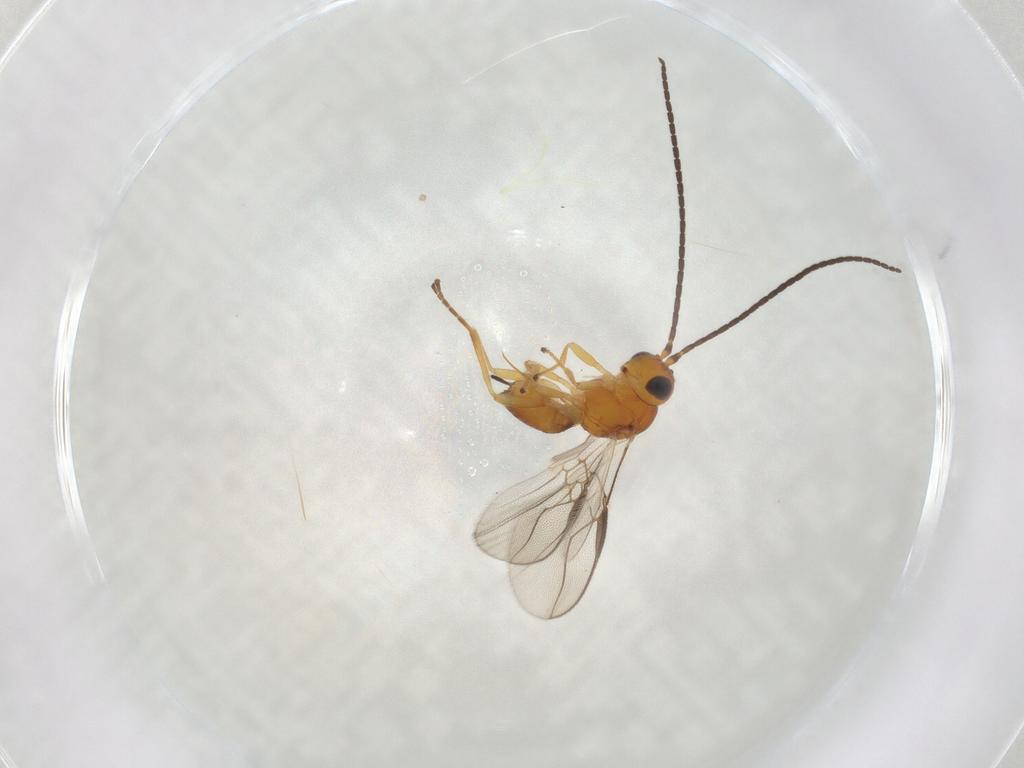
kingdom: Animalia
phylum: Arthropoda
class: Insecta
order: Hymenoptera
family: Braconidae
